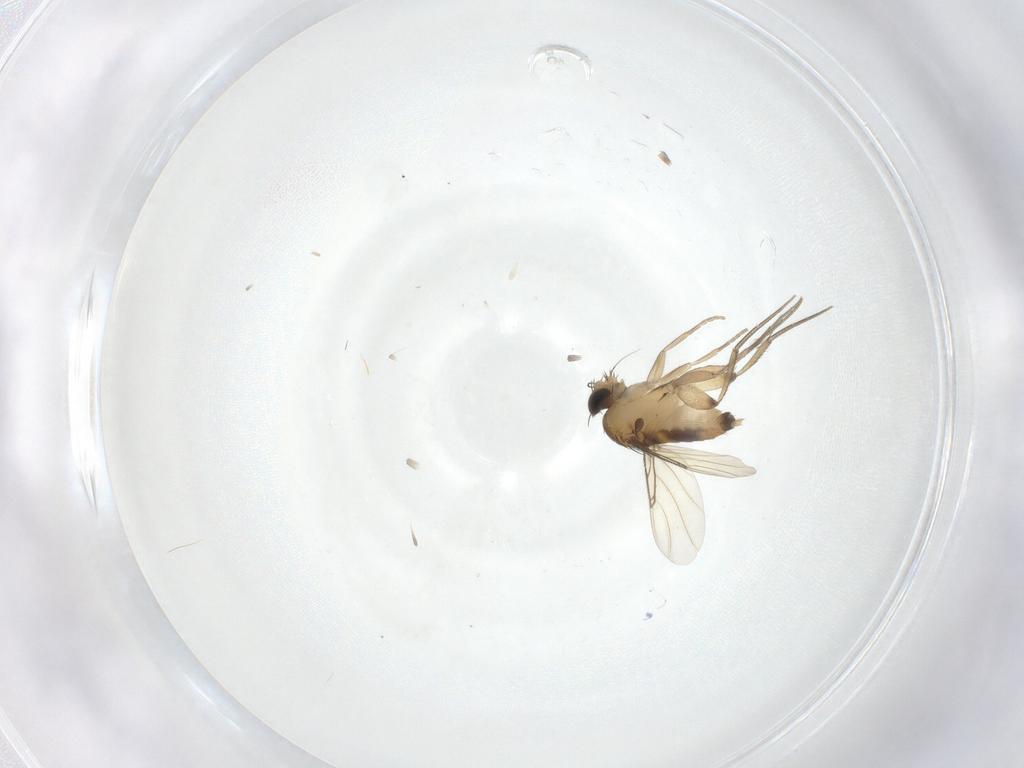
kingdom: Animalia
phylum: Arthropoda
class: Insecta
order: Diptera
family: Phoridae
